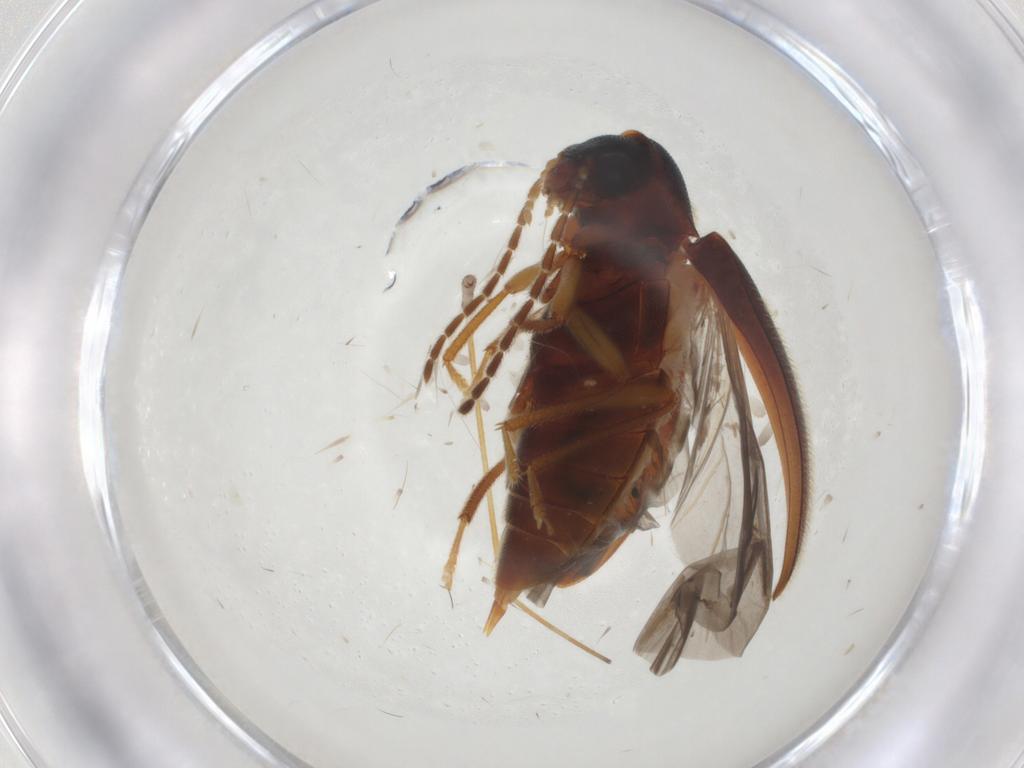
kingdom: Animalia
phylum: Arthropoda
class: Insecta
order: Coleoptera
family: Ptilodactylidae
